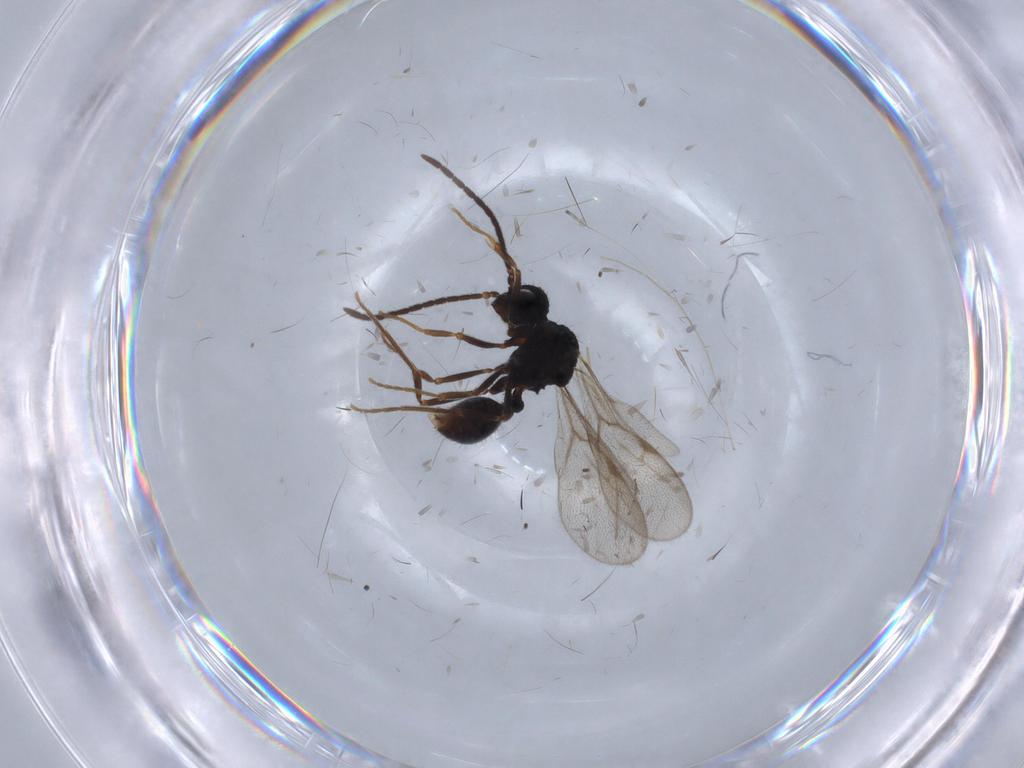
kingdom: Animalia
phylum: Arthropoda
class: Insecta
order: Hymenoptera
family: Formicidae
